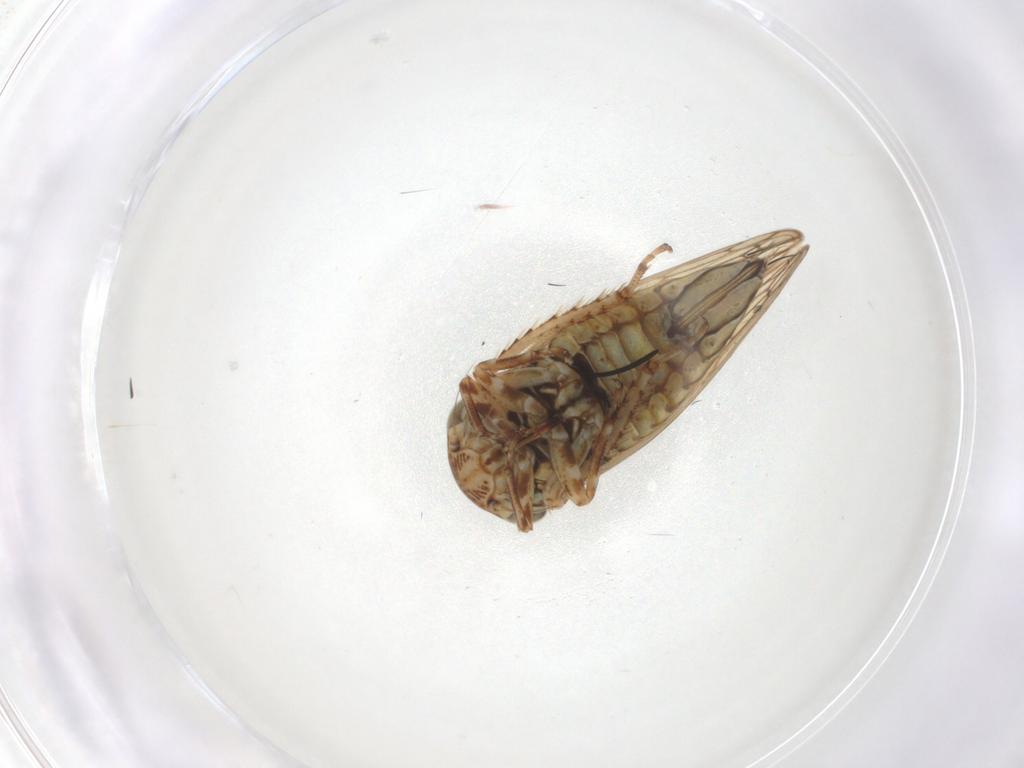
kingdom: Animalia
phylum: Arthropoda
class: Insecta
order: Hemiptera
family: Cicadellidae
